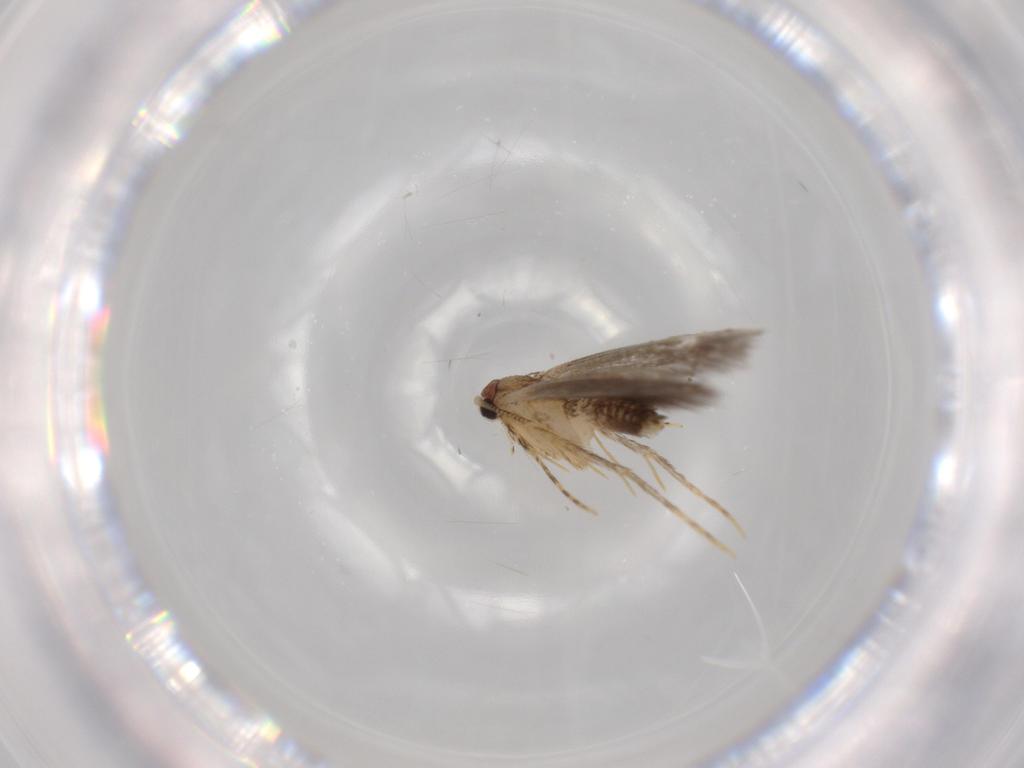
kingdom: Animalia
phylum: Arthropoda
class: Insecta
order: Lepidoptera
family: Tineidae
